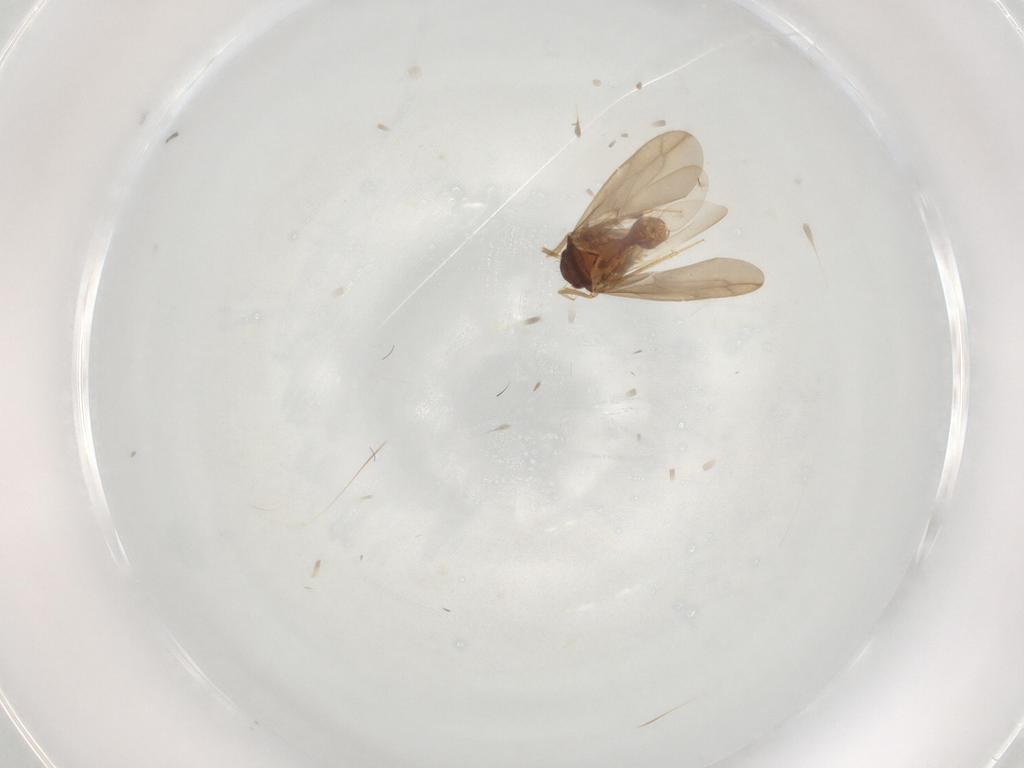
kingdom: Animalia
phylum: Arthropoda
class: Insecta
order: Hemiptera
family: Ceratocombidae
